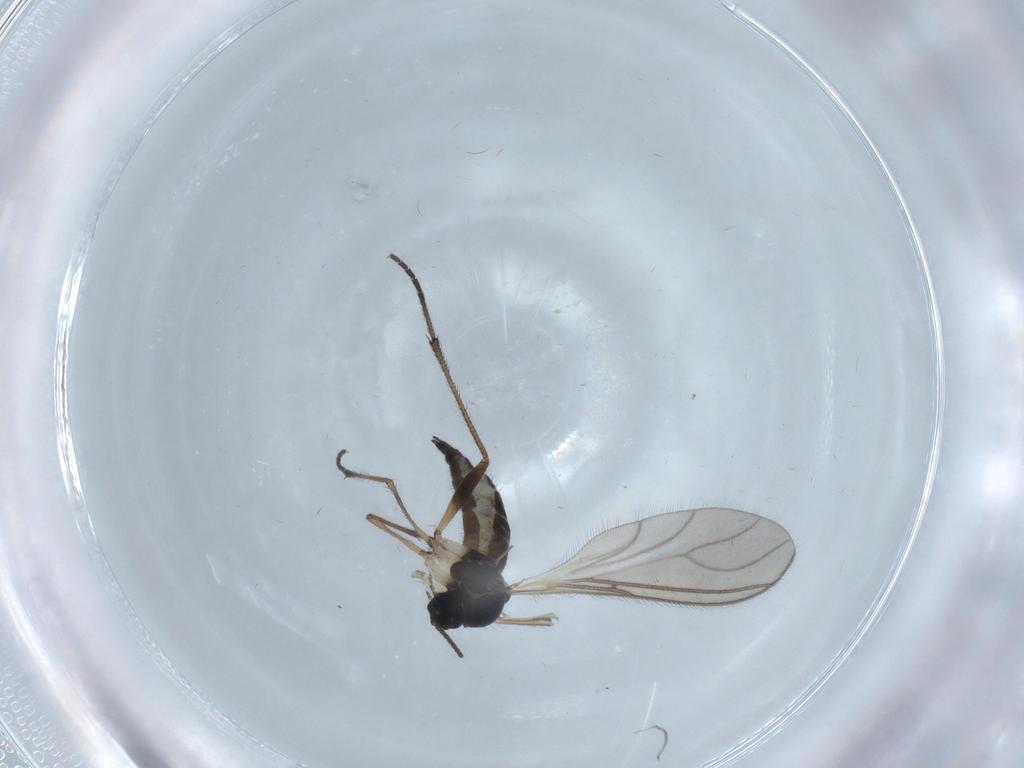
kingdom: Animalia
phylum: Arthropoda
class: Insecta
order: Diptera
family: Sciaridae
